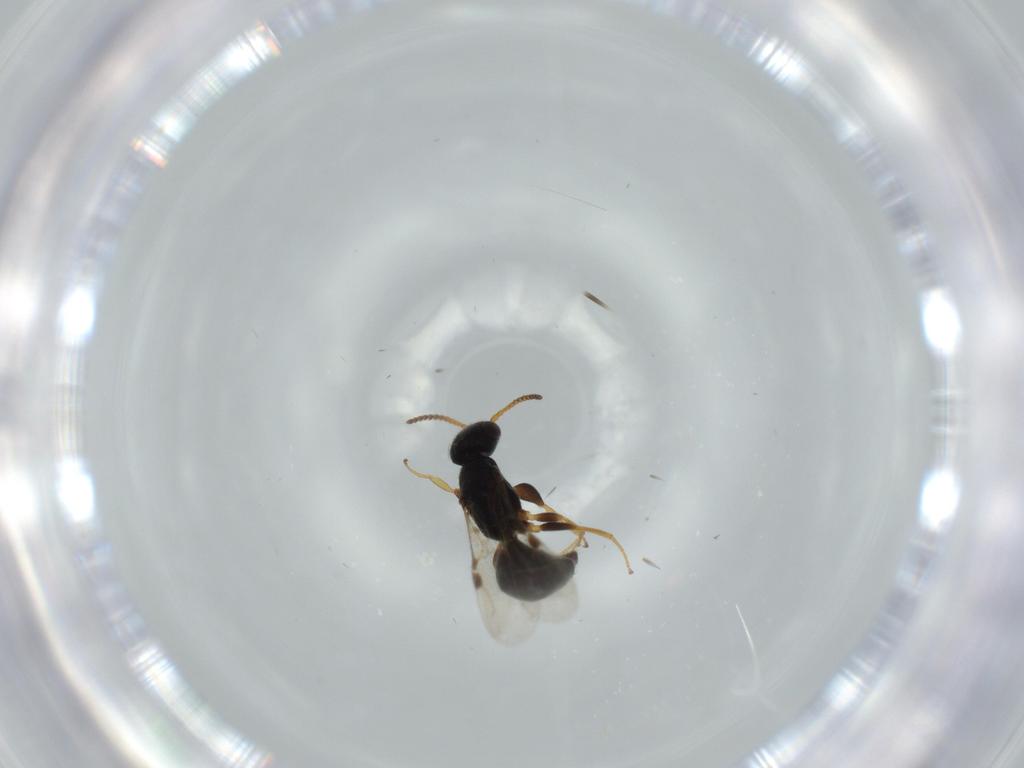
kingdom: Animalia
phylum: Arthropoda
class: Insecta
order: Hymenoptera
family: Bethylidae
